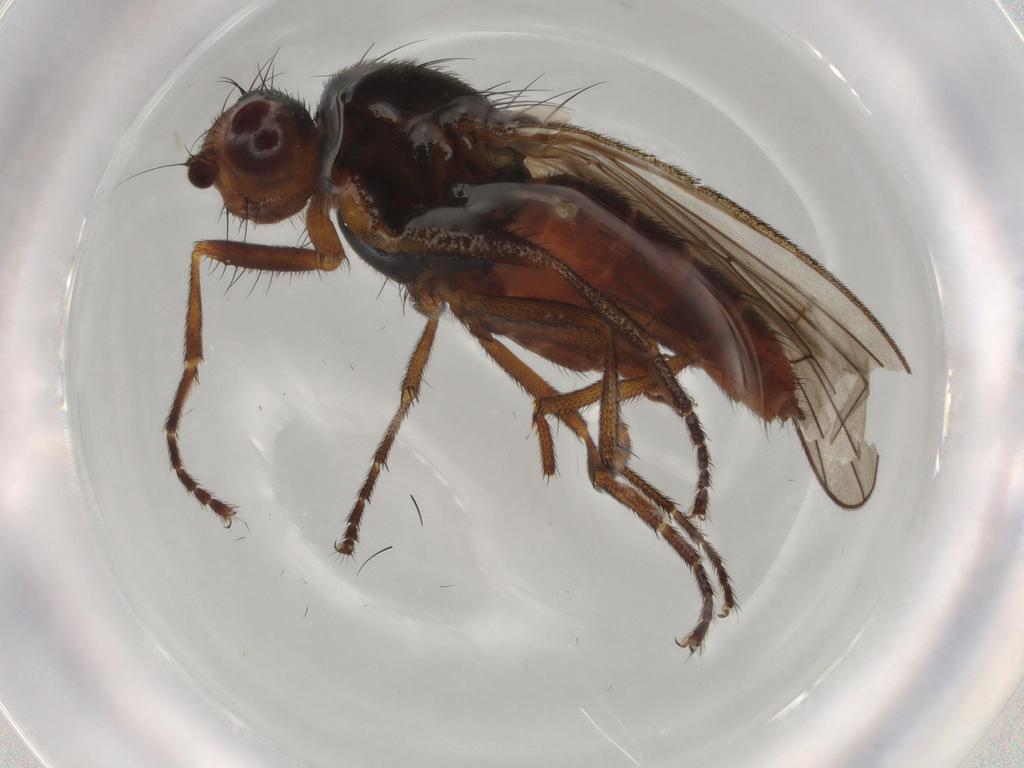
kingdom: Animalia
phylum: Arthropoda
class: Insecta
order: Diptera
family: Heleomyzidae
